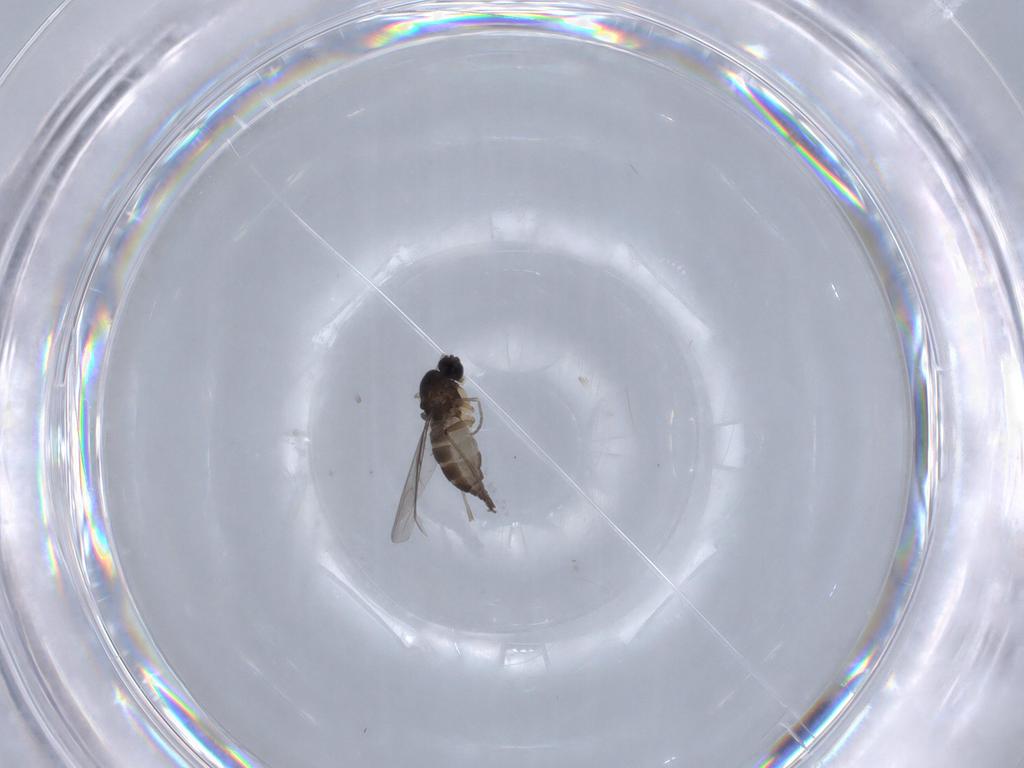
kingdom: Animalia
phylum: Arthropoda
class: Insecta
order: Diptera
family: Sciaridae
